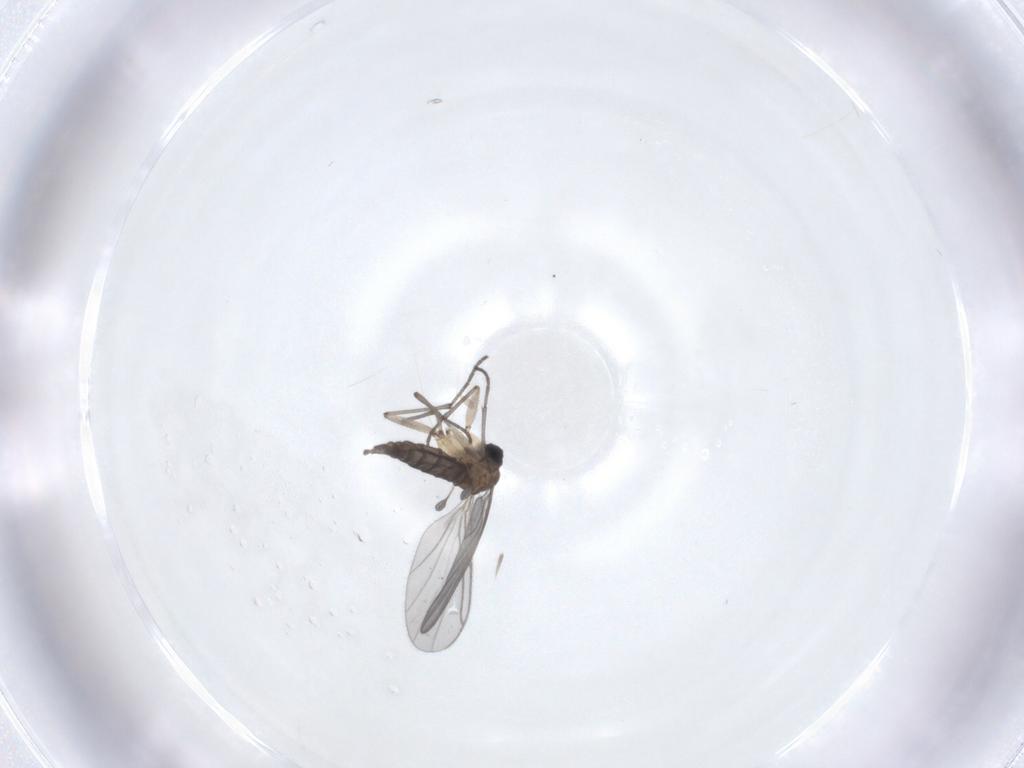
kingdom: Animalia
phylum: Arthropoda
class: Insecta
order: Diptera
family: Sciaridae
